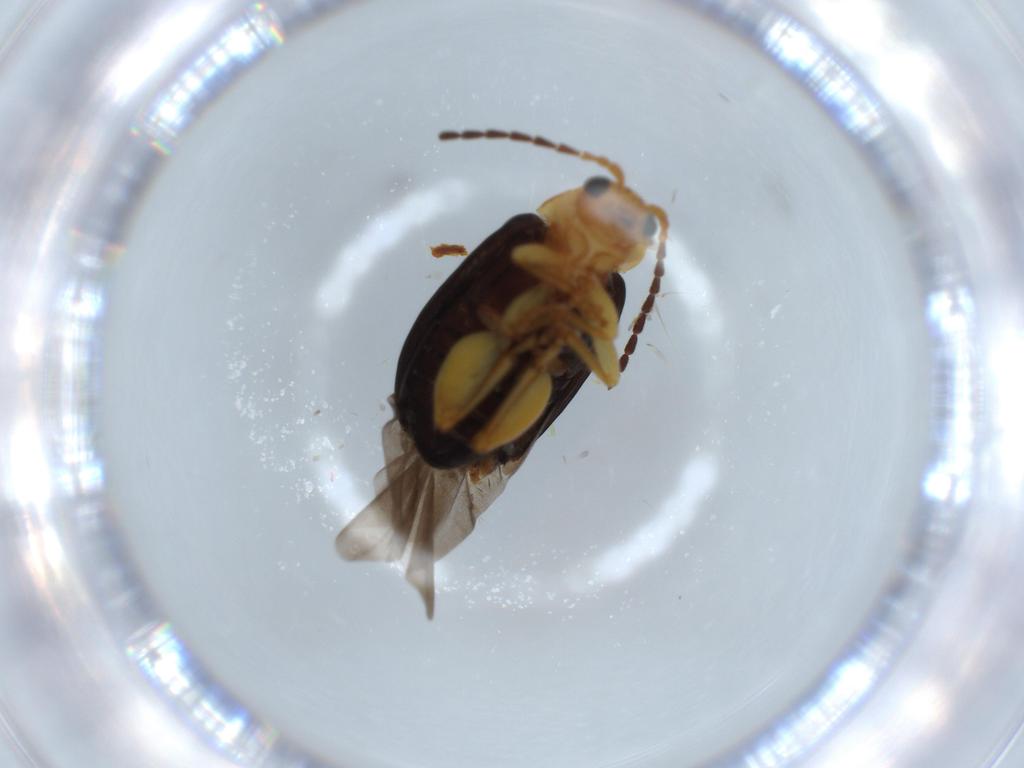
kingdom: Animalia
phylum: Arthropoda
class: Insecta
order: Coleoptera
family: Chrysomelidae
